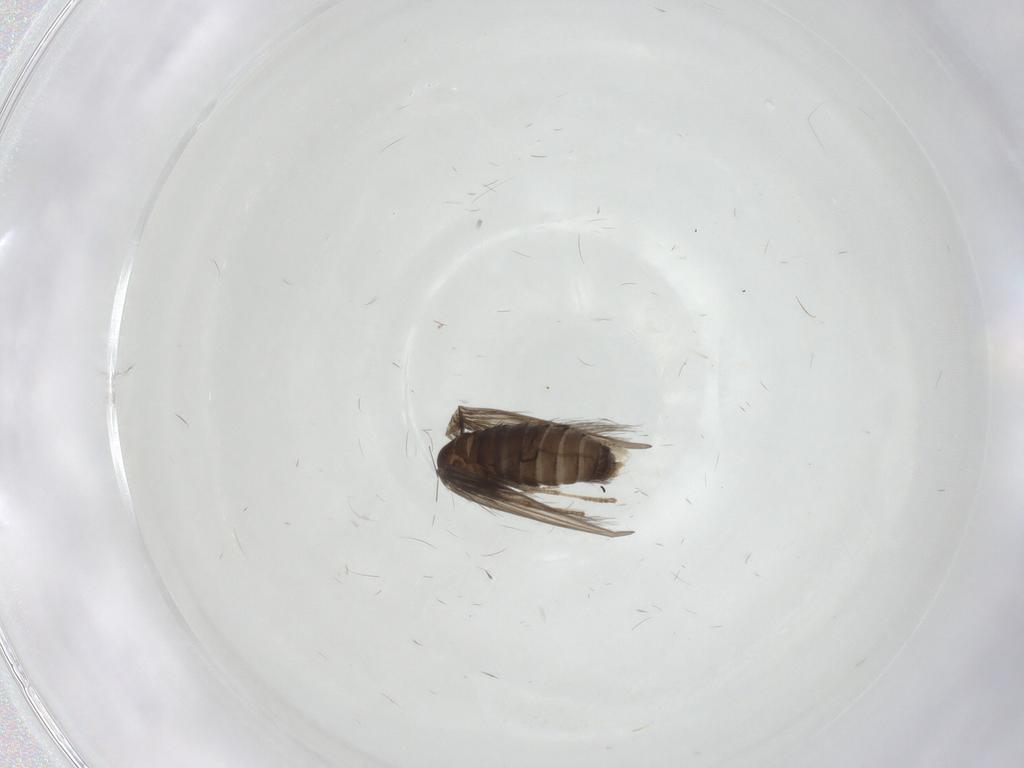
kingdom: Animalia
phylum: Arthropoda
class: Insecta
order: Diptera
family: Psychodidae
